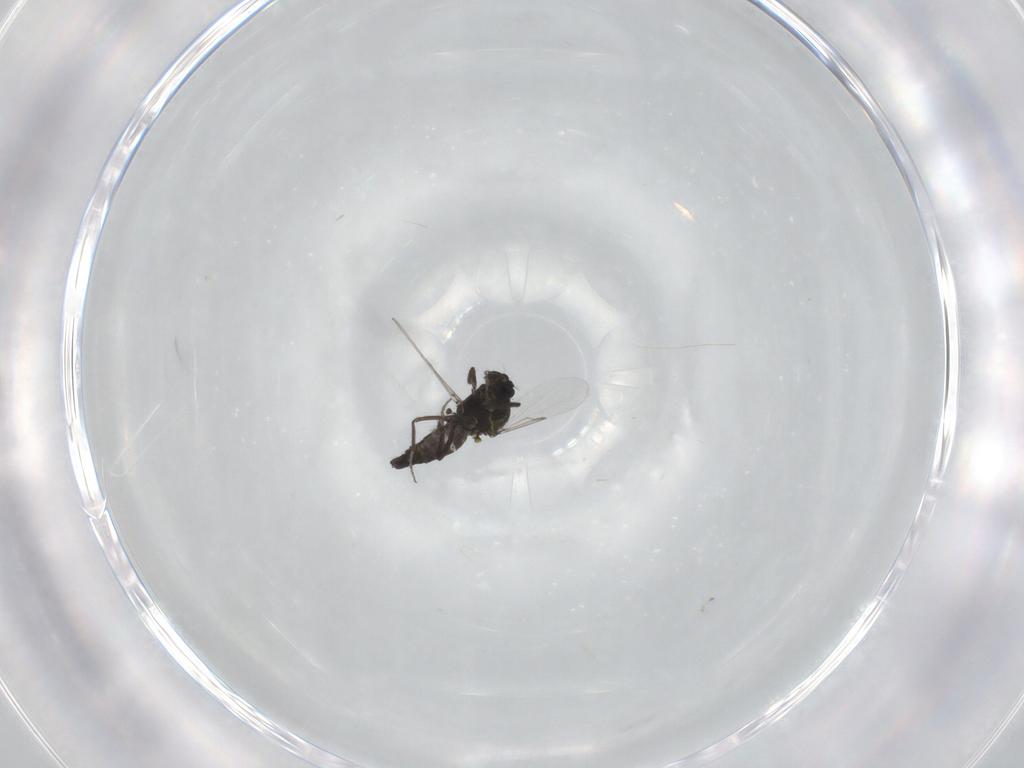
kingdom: Animalia
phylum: Arthropoda
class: Insecta
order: Diptera
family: Ceratopogonidae
